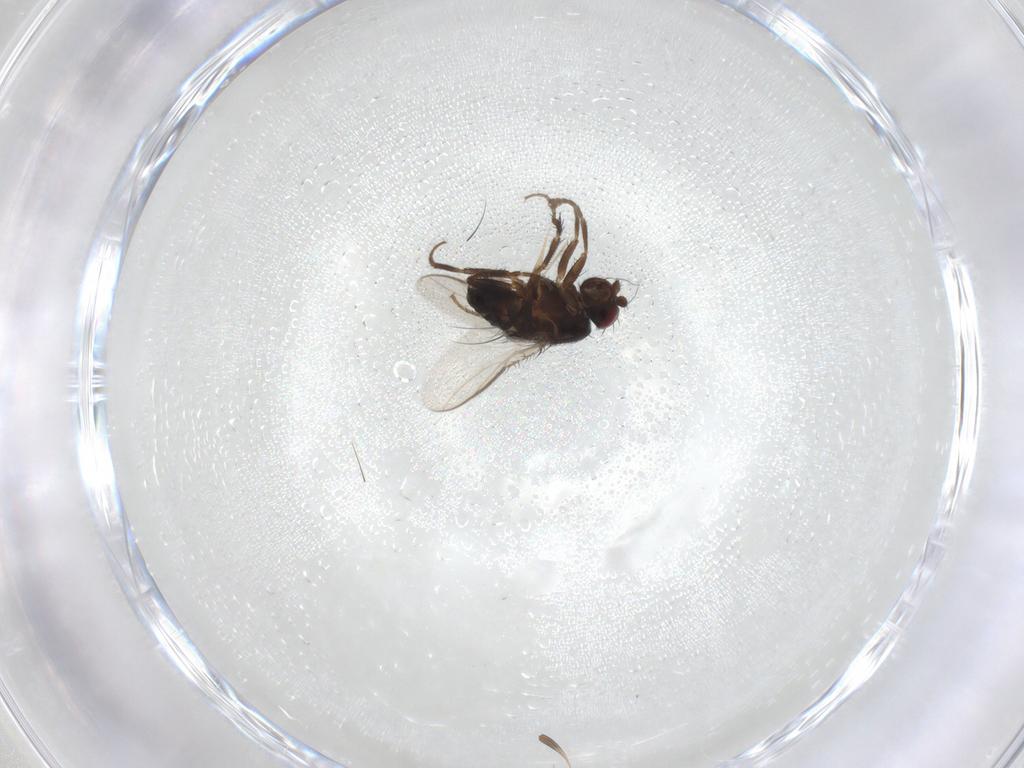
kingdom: Animalia
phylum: Arthropoda
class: Insecta
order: Diptera
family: Sphaeroceridae
